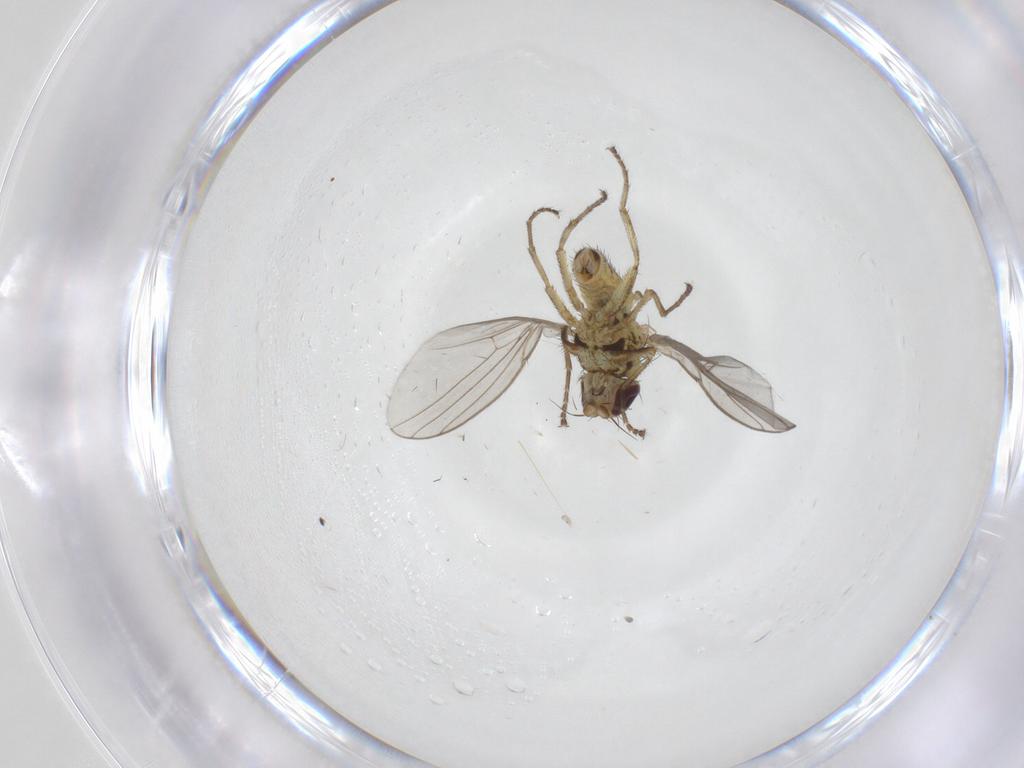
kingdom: Animalia
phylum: Arthropoda
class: Insecta
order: Diptera
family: Agromyzidae
